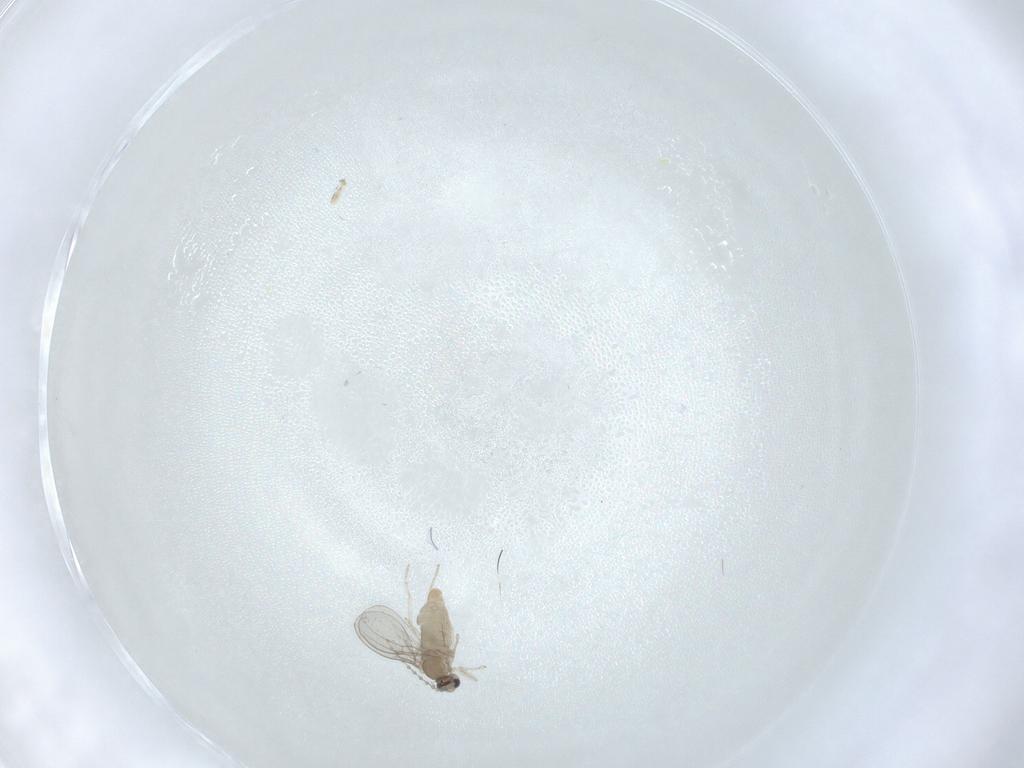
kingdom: Animalia
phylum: Arthropoda
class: Insecta
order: Diptera
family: Cecidomyiidae
